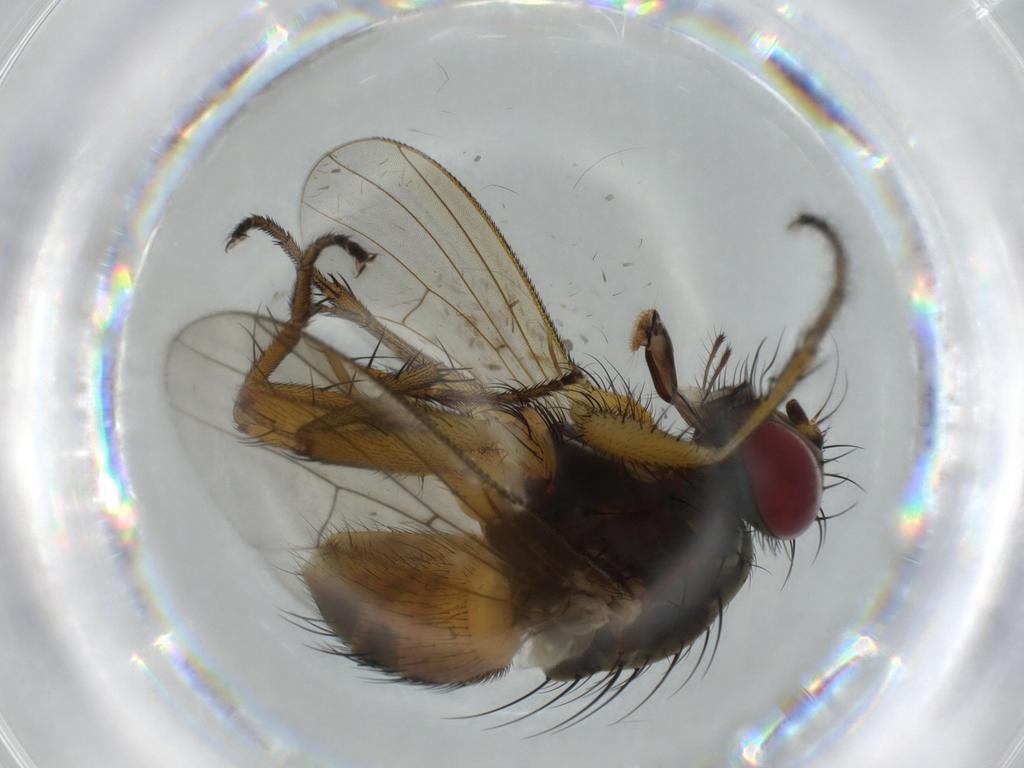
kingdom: Animalia
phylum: Arthropoda
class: Insecta
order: Diptera
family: Muscidae
